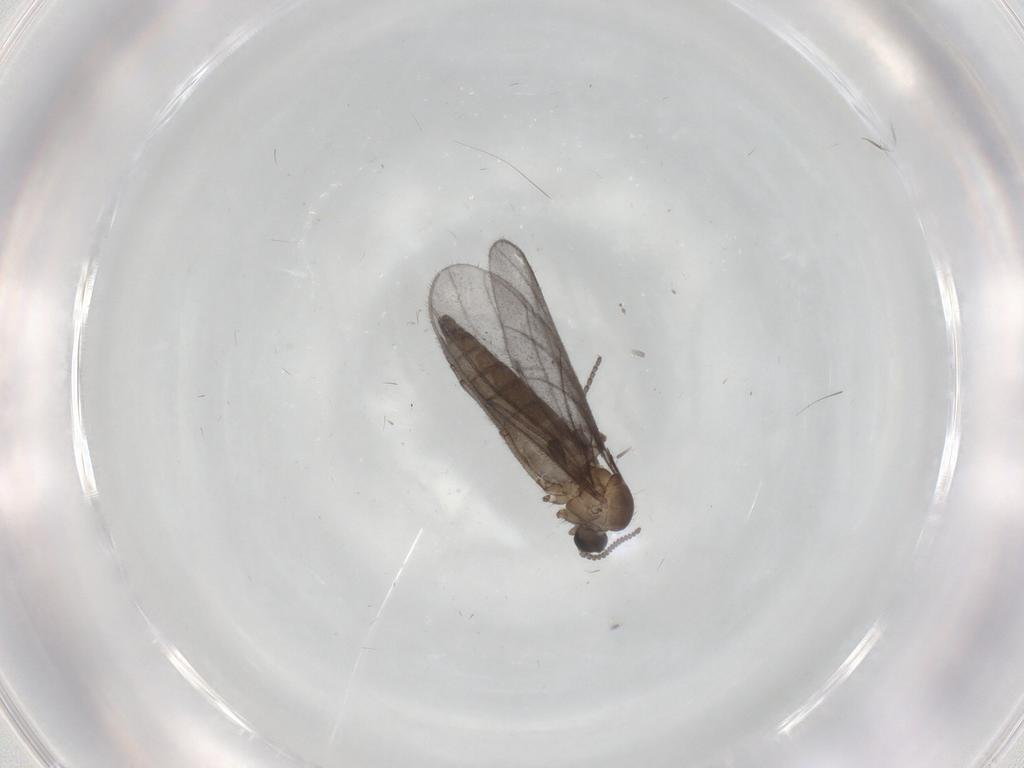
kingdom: Animalia
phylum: Arthropoda
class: Insecta
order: Diptera
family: Sciaridae
